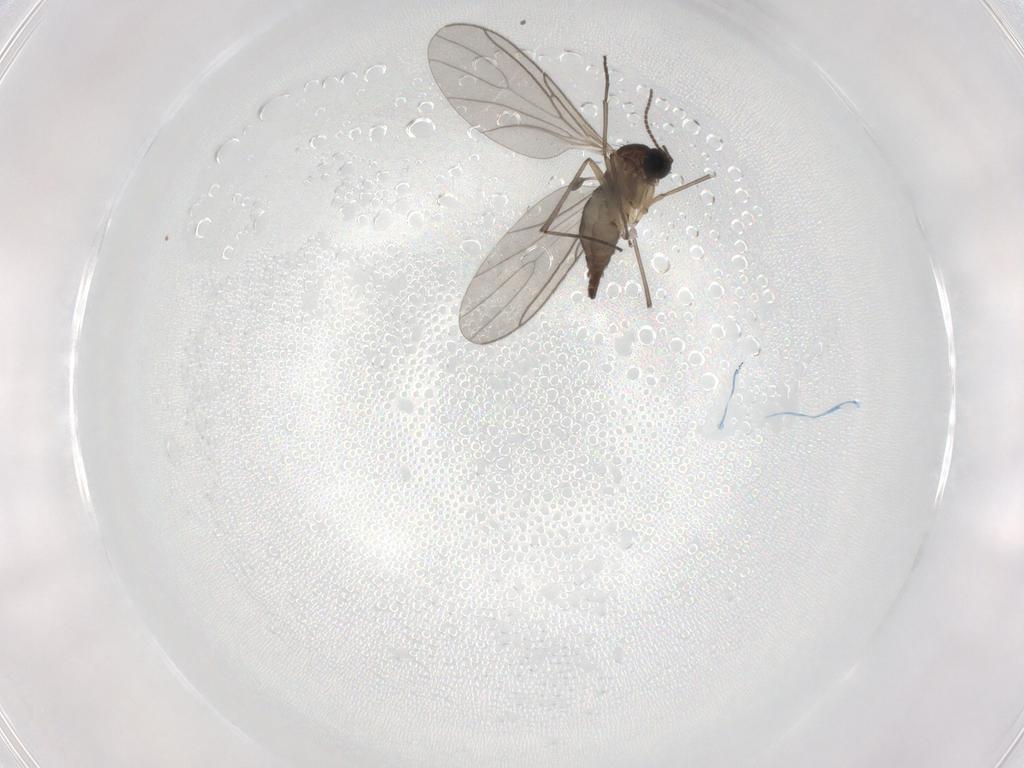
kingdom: Animalia
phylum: Arthropoda
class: Insecta
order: Diptera
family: Sciaridae
